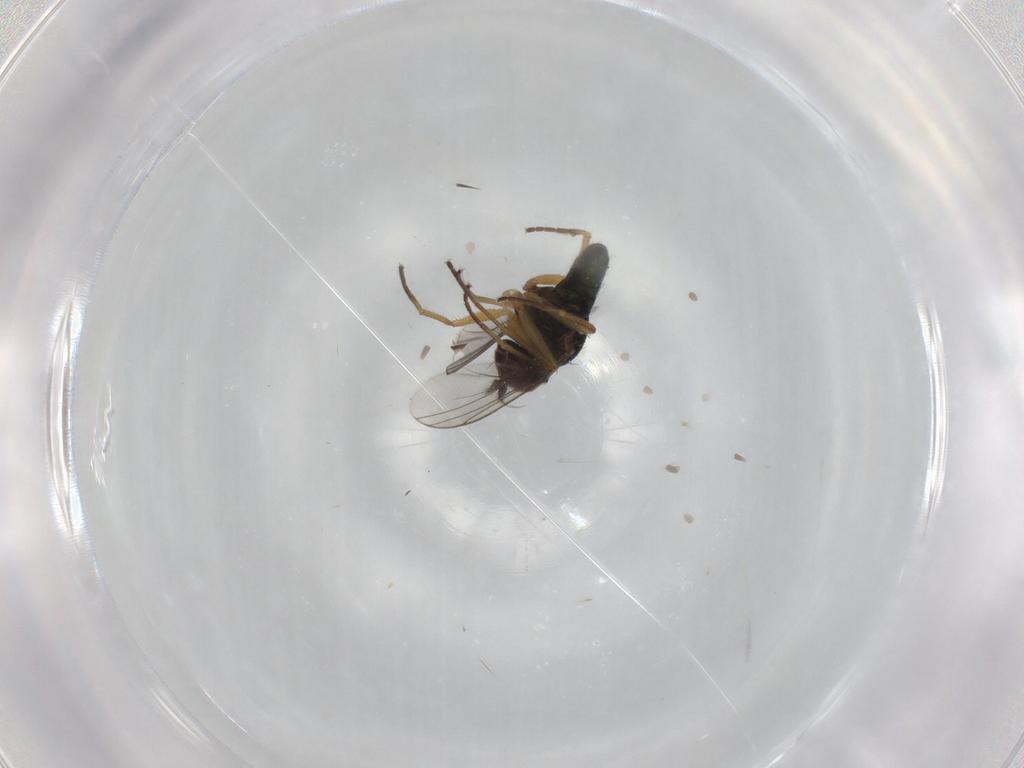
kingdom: Animalia
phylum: Arthropoda
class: Insecta
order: Diptera
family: Dolichopodidae
